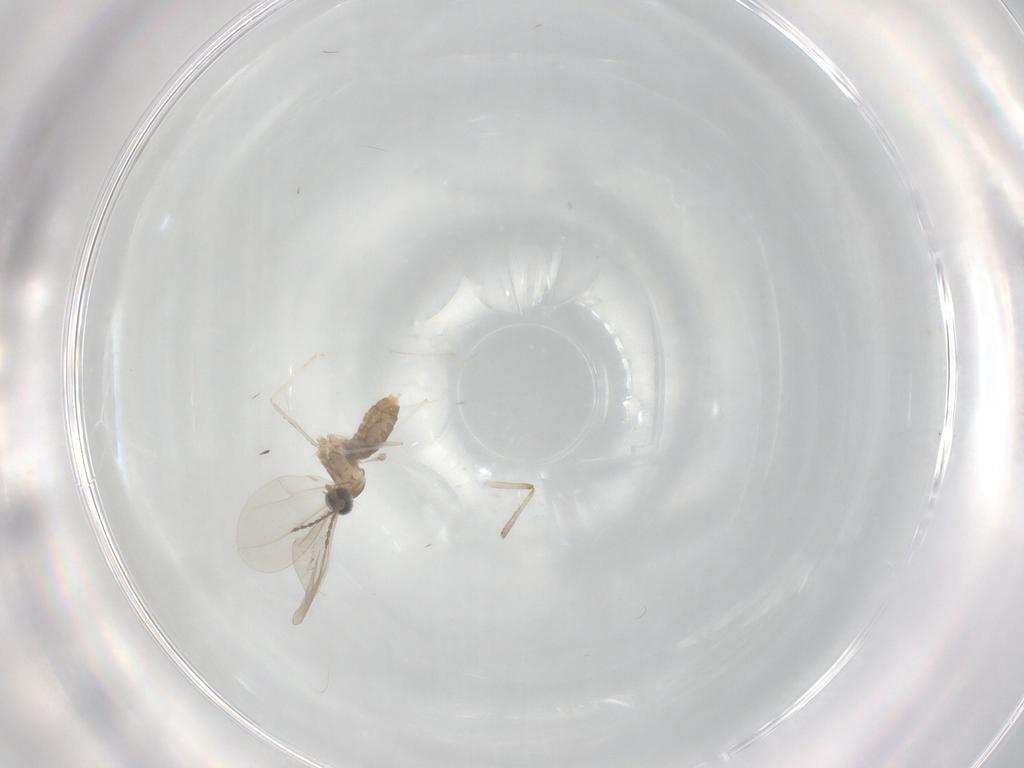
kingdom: Animalia
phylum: Arthropoda
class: Insecta
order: Diptera
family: Cecidomyiidae
